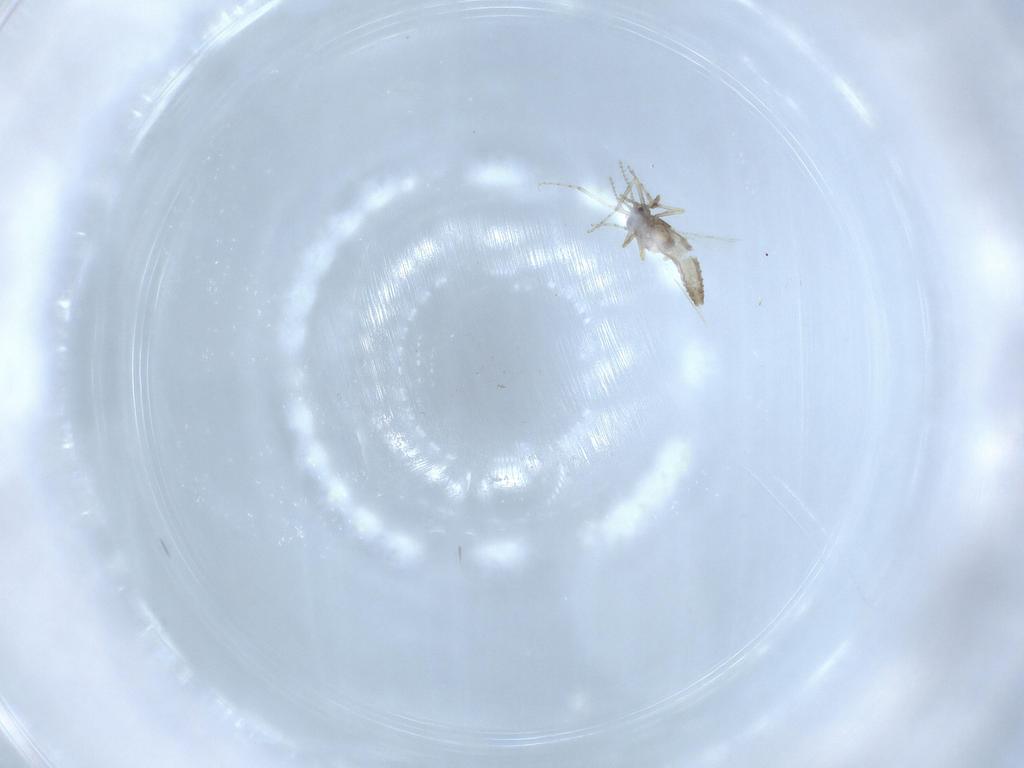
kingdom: Animalia
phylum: Arthropoda
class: Insecta
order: Diptera
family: Ceratopogonidae
